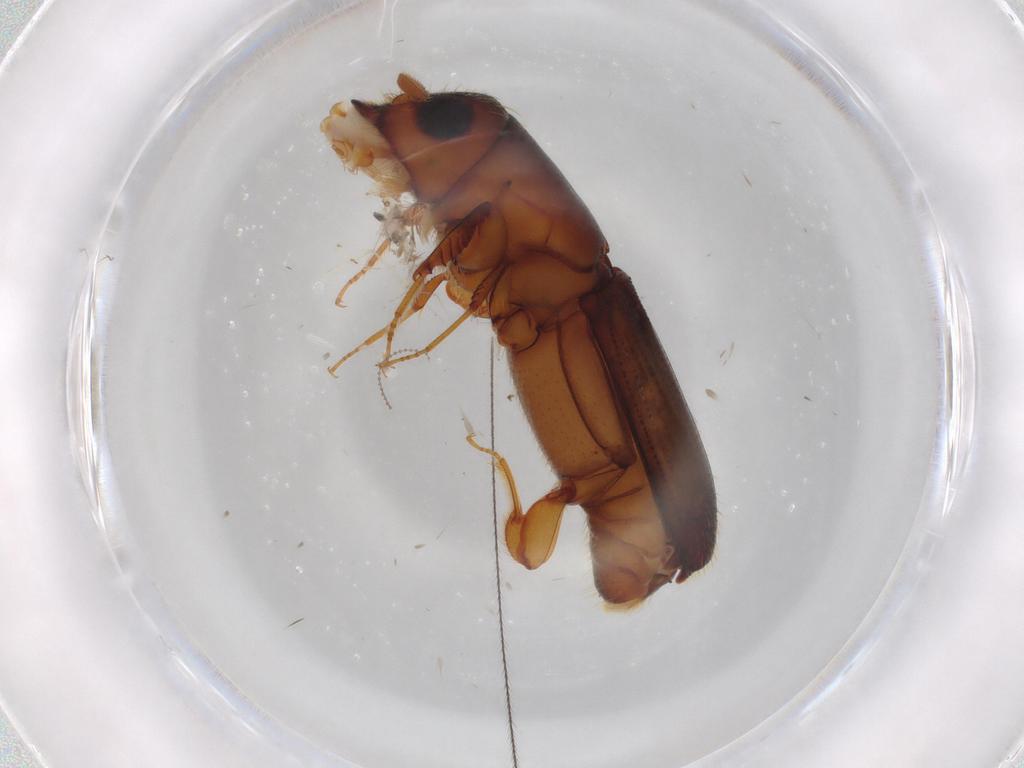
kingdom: Animalia
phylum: Arthropoda
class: Insecta
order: Coleoptera
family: Curculionidae
